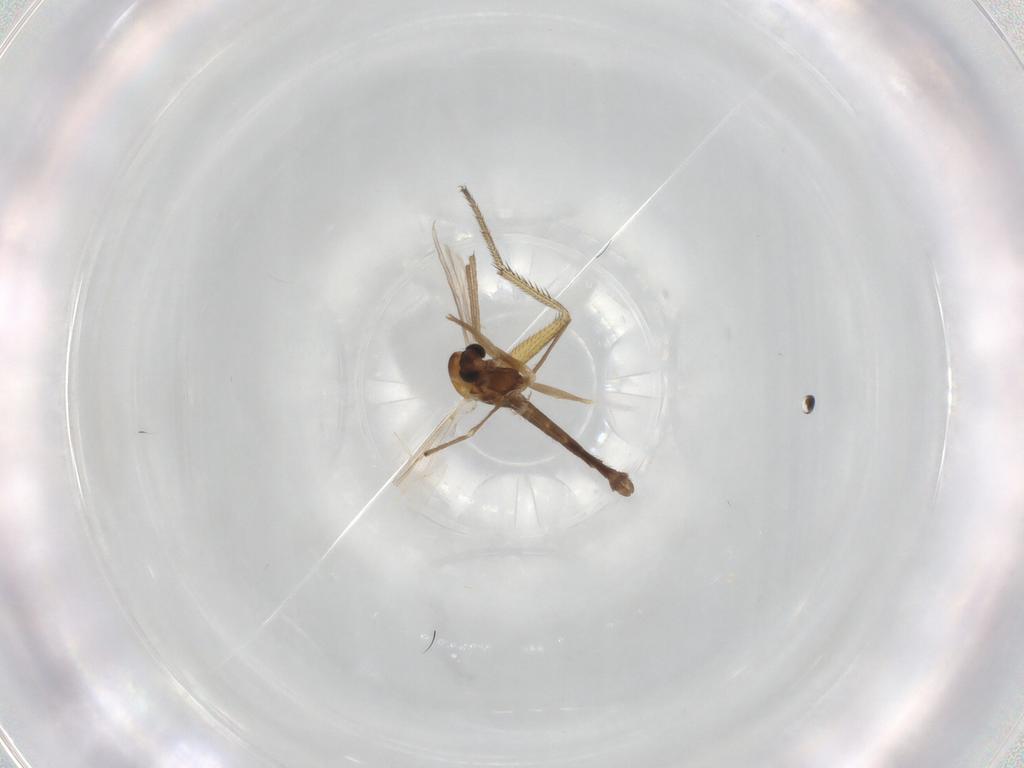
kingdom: Animalia
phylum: Arthropoda
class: Insecta
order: Diptera
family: Chironomidae
